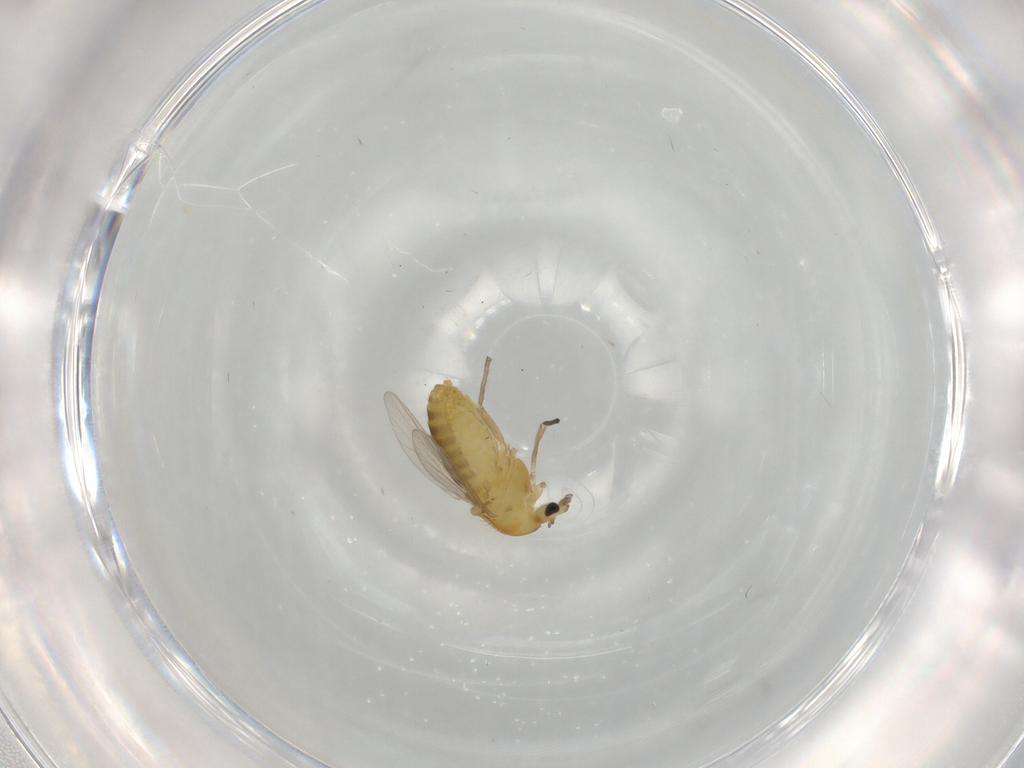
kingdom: Animalia
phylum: Arthropoda
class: Insecta
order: Diptera
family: Chironomidae
